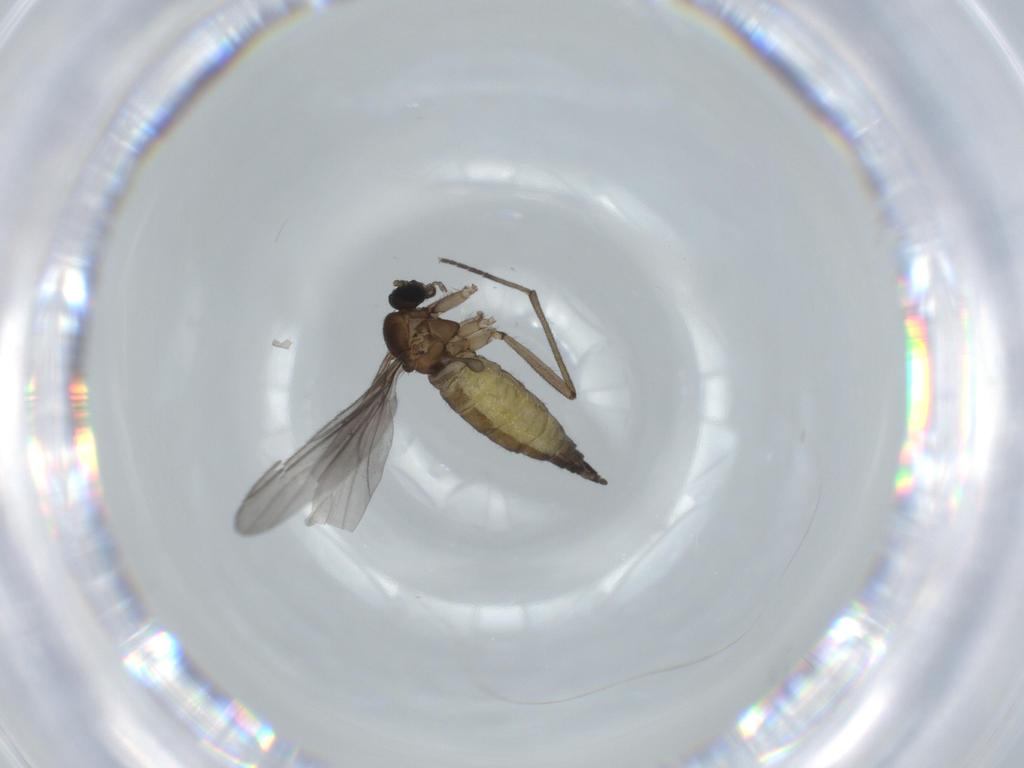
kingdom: Animalia
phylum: Arthropoda
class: Insecta
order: Diptera
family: Sciaridae
